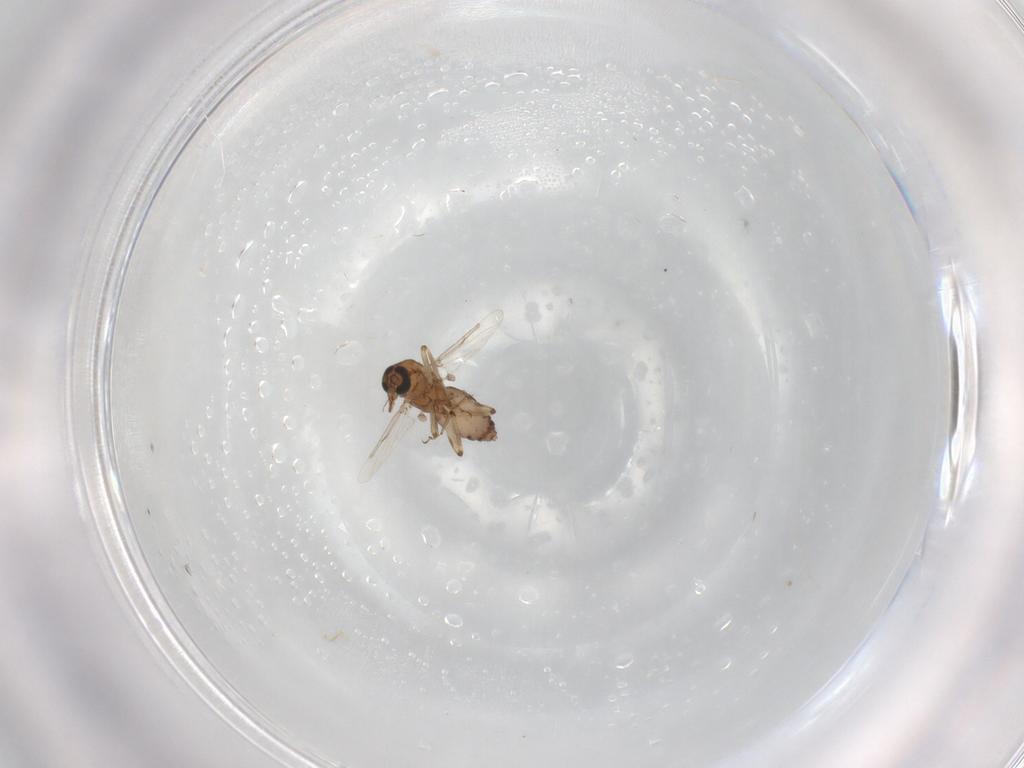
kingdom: Animalia
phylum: Arthropoda
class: Insecta
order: Diptera
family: Ceratopogonidae
